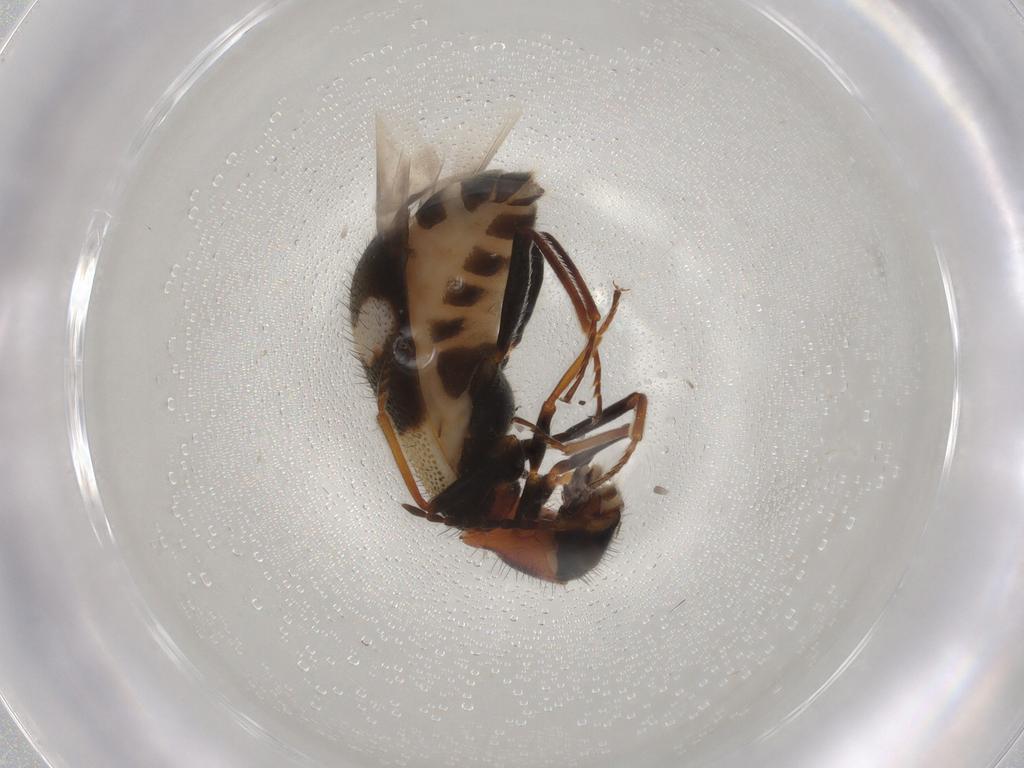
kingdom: Animalia
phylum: Arthropoda
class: Insecta
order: Coleoptera
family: Melyridae
